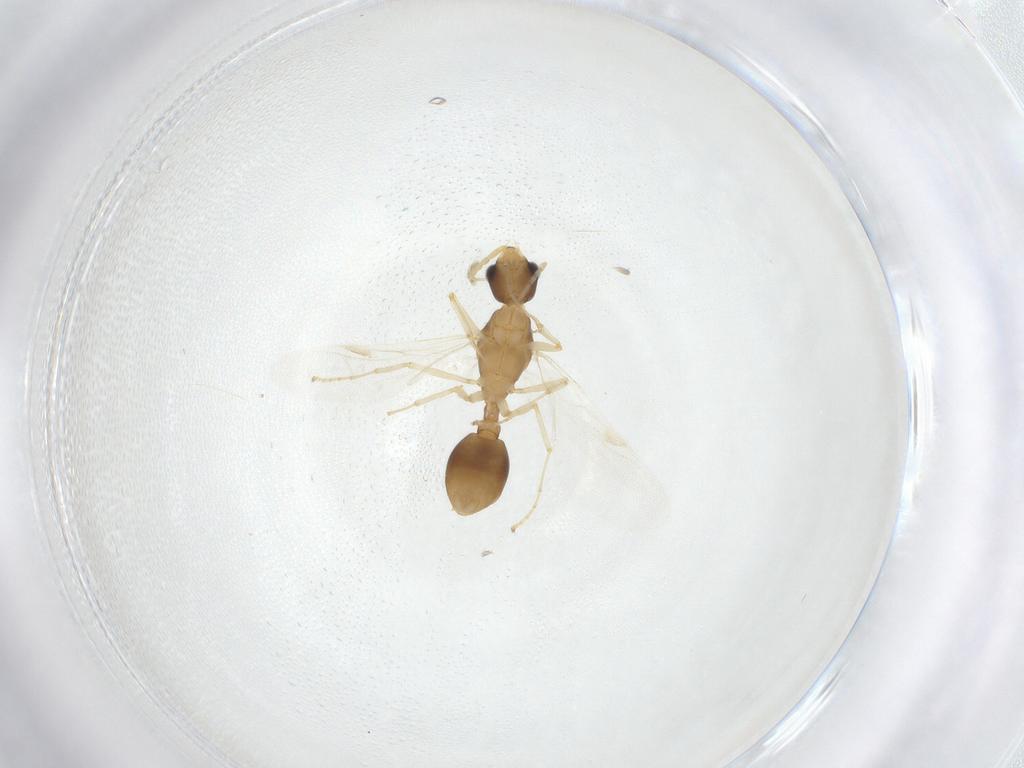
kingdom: Animalia
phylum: Arthropoda
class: Insecta
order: Hymenoptera
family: Formicidae
